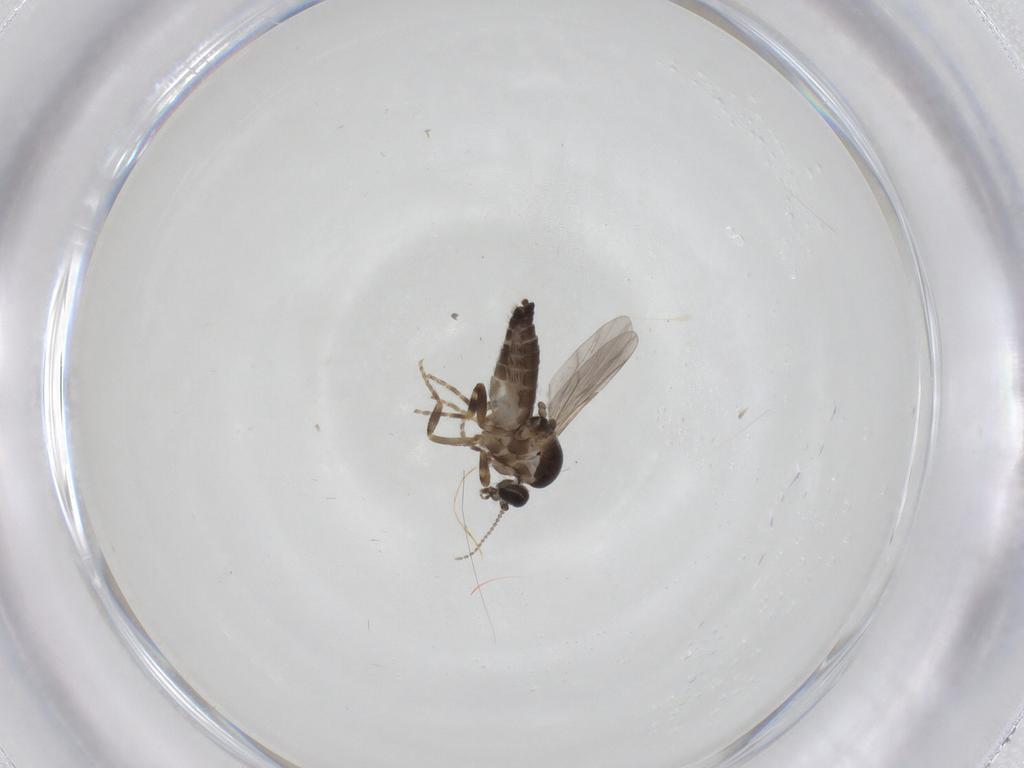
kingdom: Animalia
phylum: Arthropoda
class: Insecta
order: Diptera
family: Ceratopogonidae
